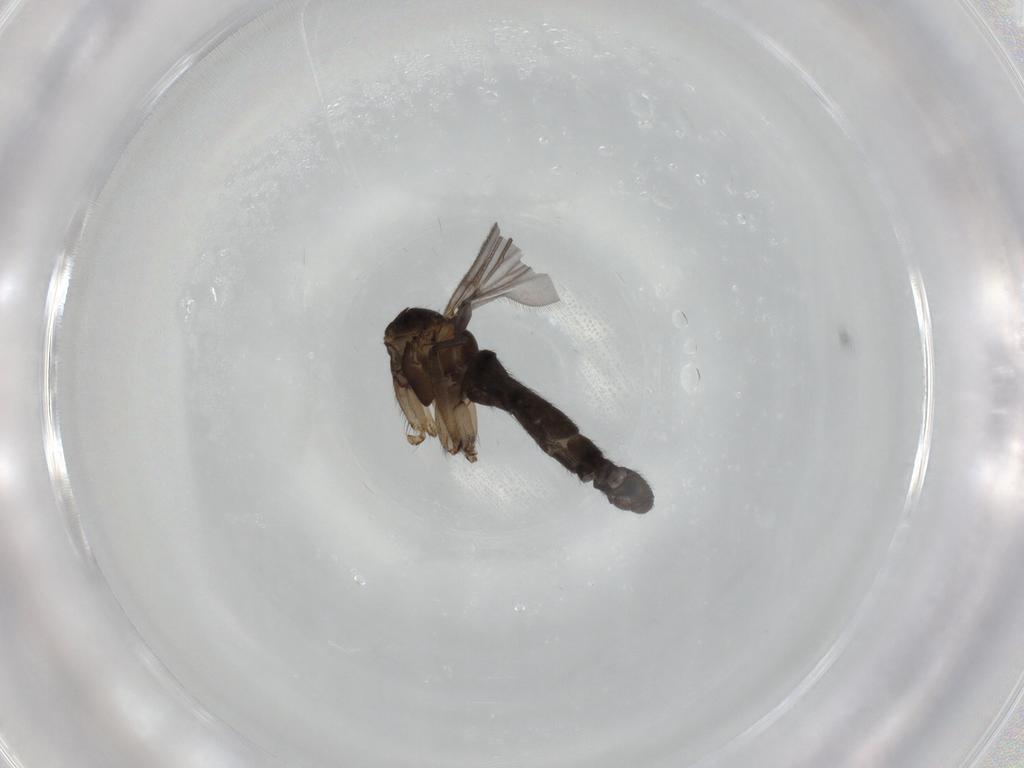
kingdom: Animalia
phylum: Arthropoda
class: Insecta
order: Diptera
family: Sciaridae
